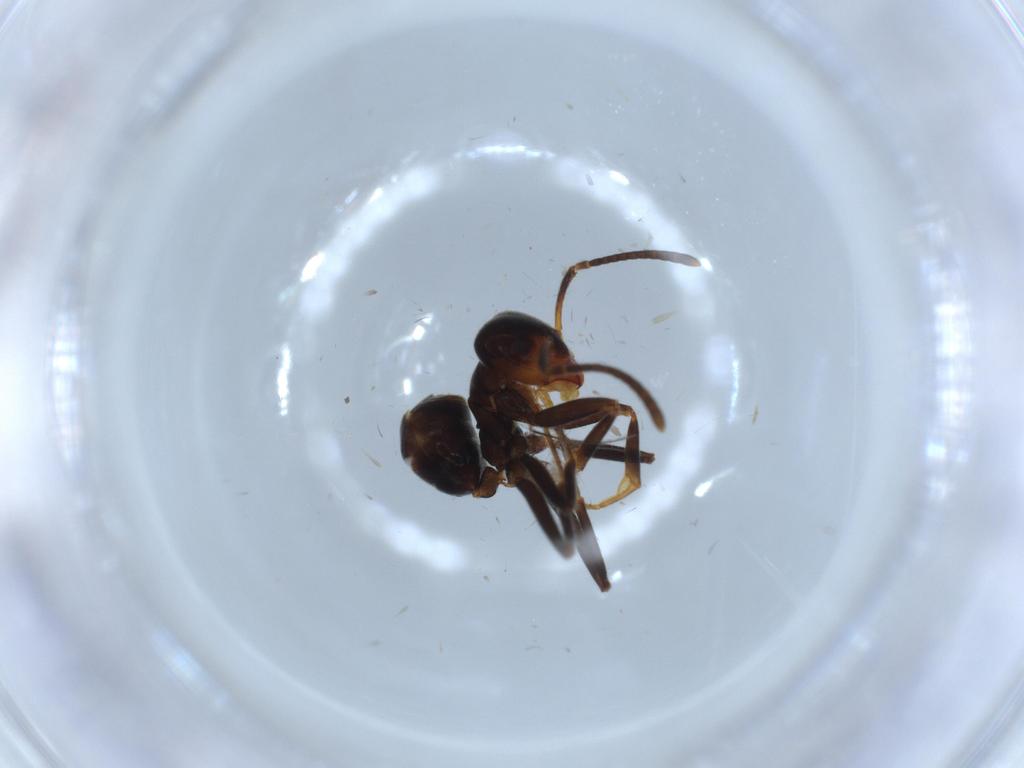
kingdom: Animalia
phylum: Arthropoda
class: Insecta
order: Hymenoptera
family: Formicidae
